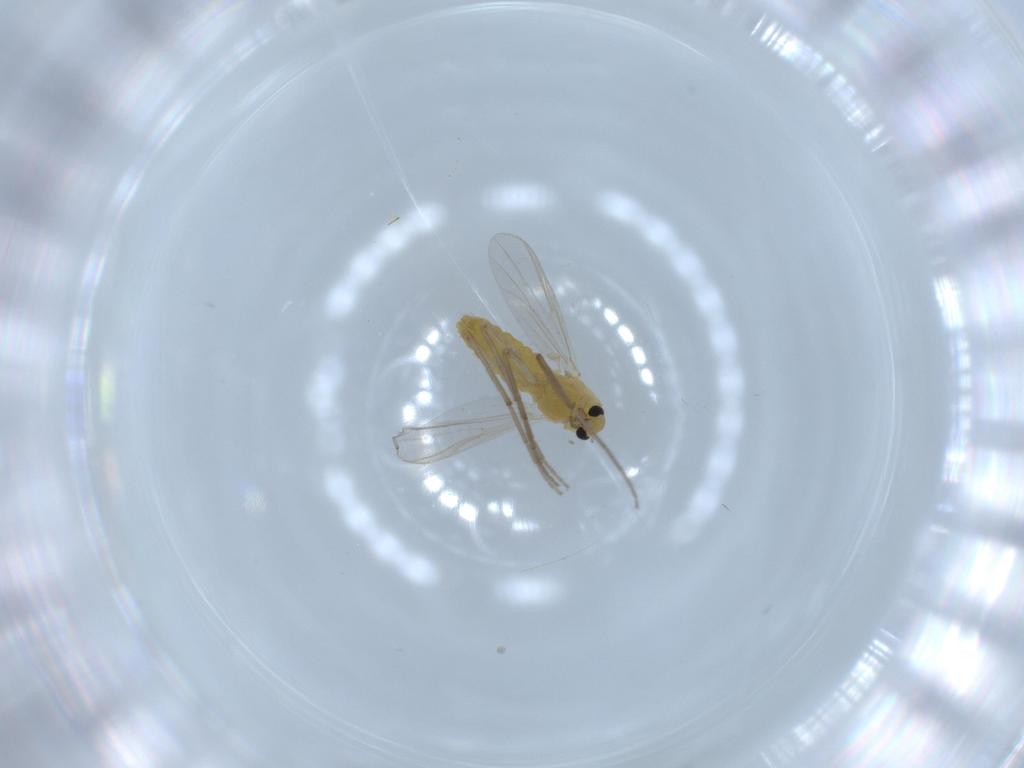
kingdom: Animalia
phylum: Arthropoda
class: Insecta
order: Diptera
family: Chironomidae
